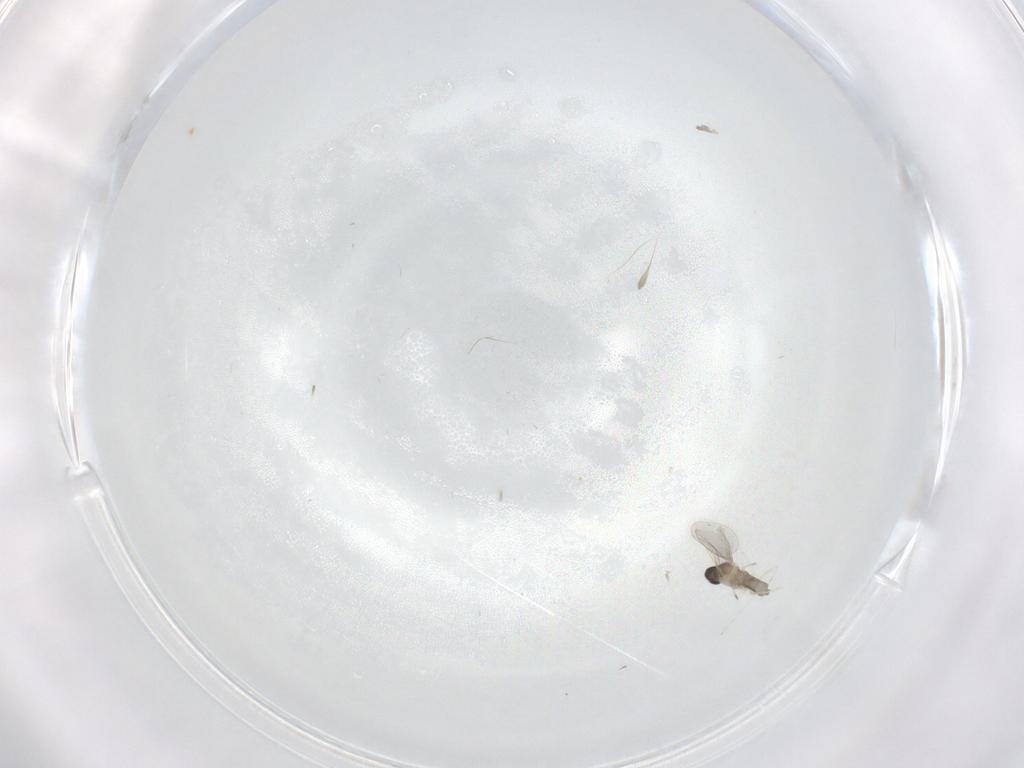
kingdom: Animalia
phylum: Arthropoda
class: Insecta
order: Diptera
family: Cecidomyiidae
